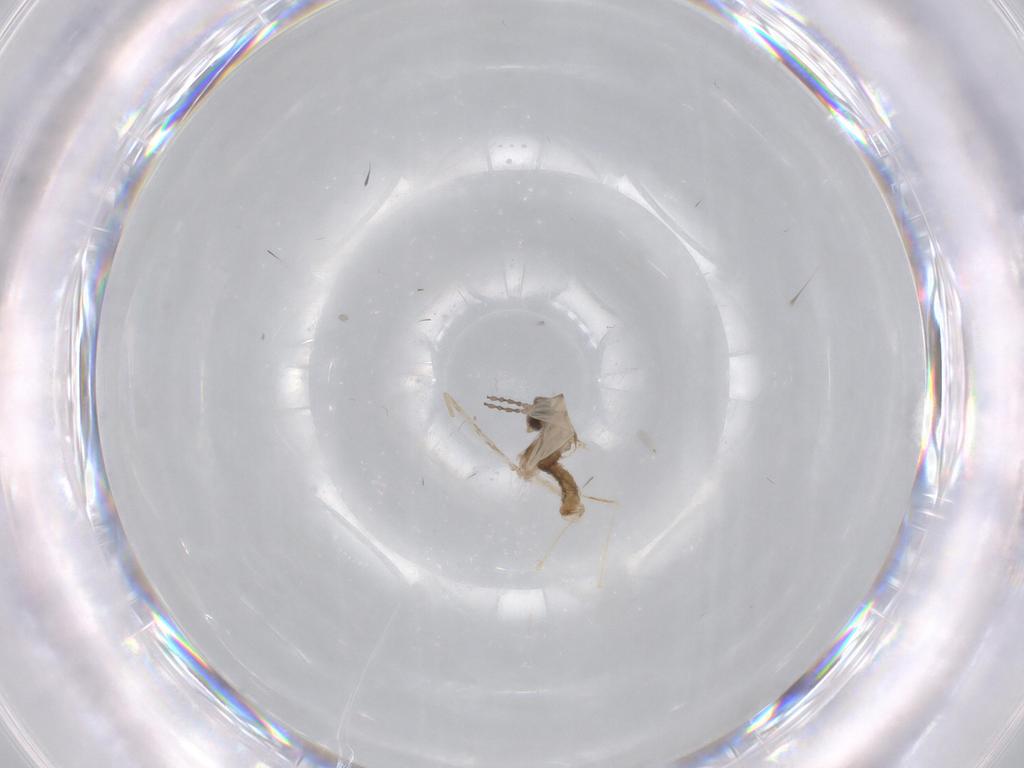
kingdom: Animalia
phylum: Arthropoda
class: Insecta
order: Diptera
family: Cecidomyiidae
